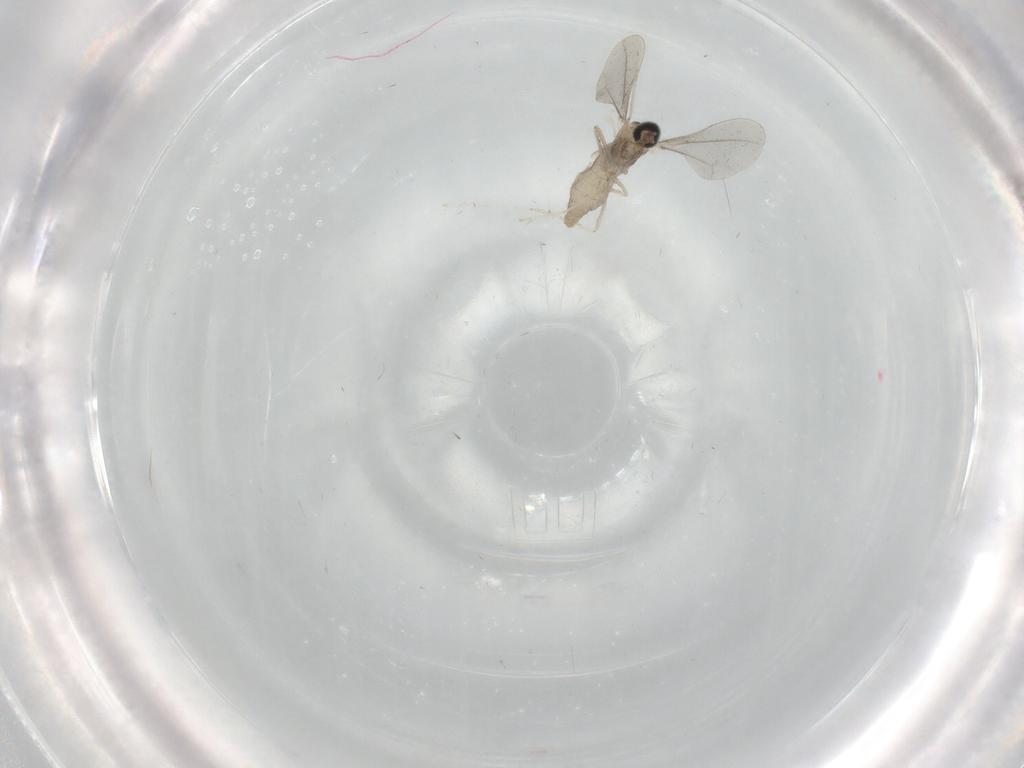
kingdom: Animalia
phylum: Arthropoda
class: Insecta
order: Diptera
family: Cecidomyiidae
